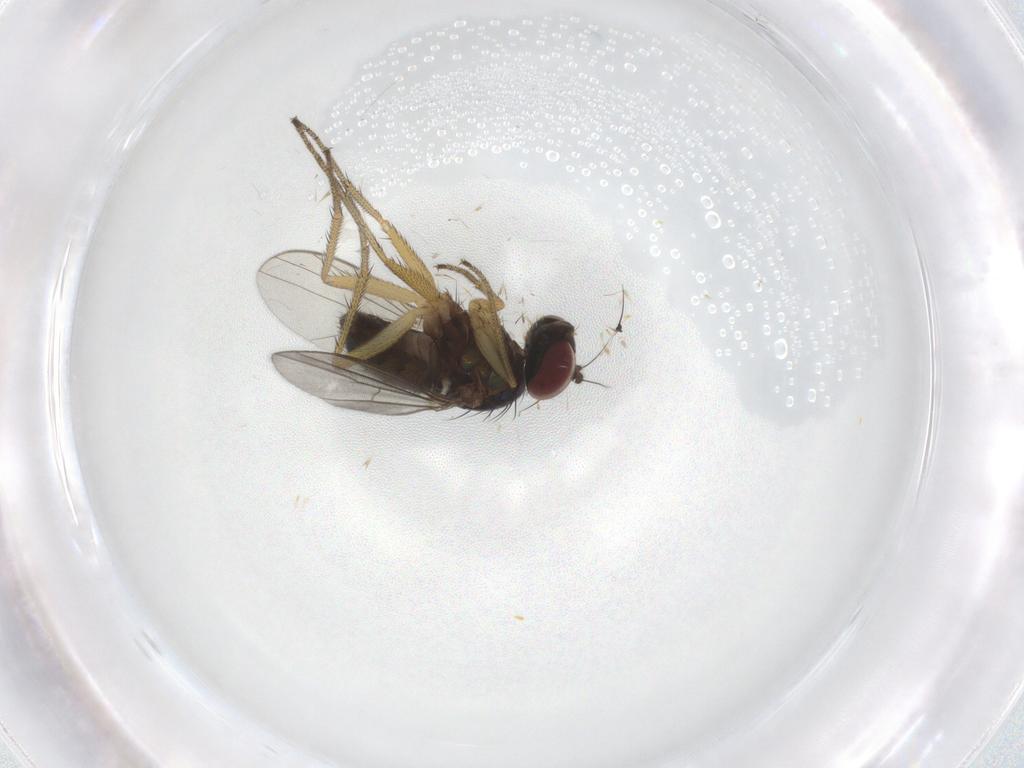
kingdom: Animalia
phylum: Arthropoda
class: Insecta
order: Diptera
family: Dolichopodidae
